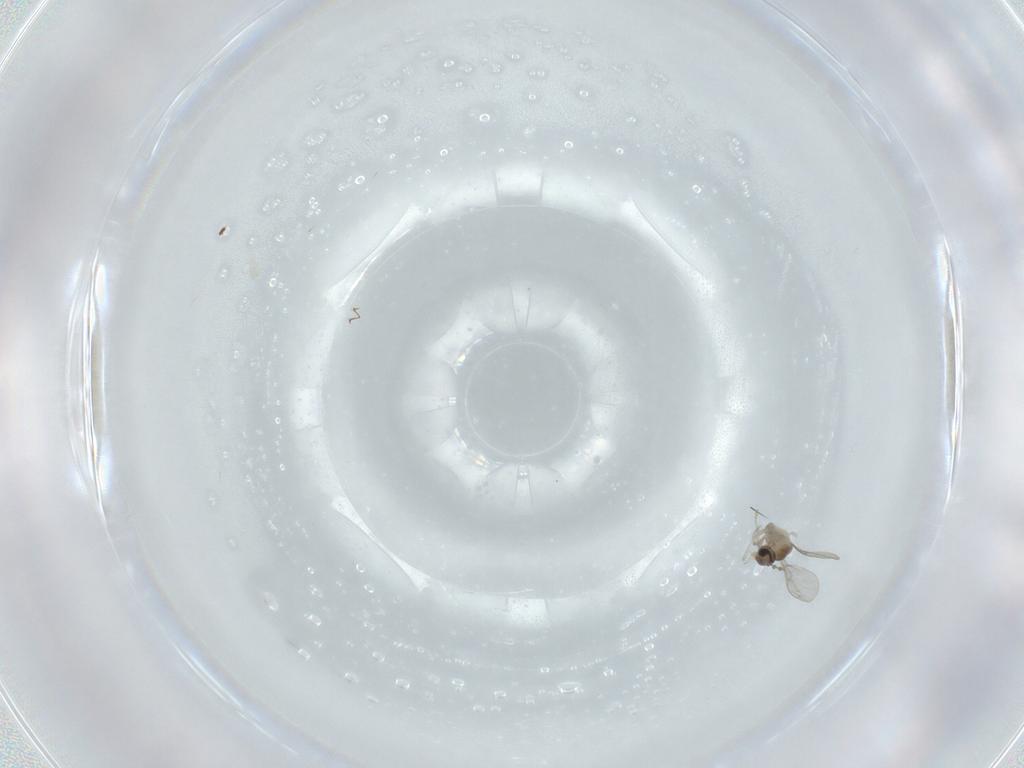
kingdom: Animalia
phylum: Arthropoda
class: Insecta
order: Diptera
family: Cecidomyiidae
